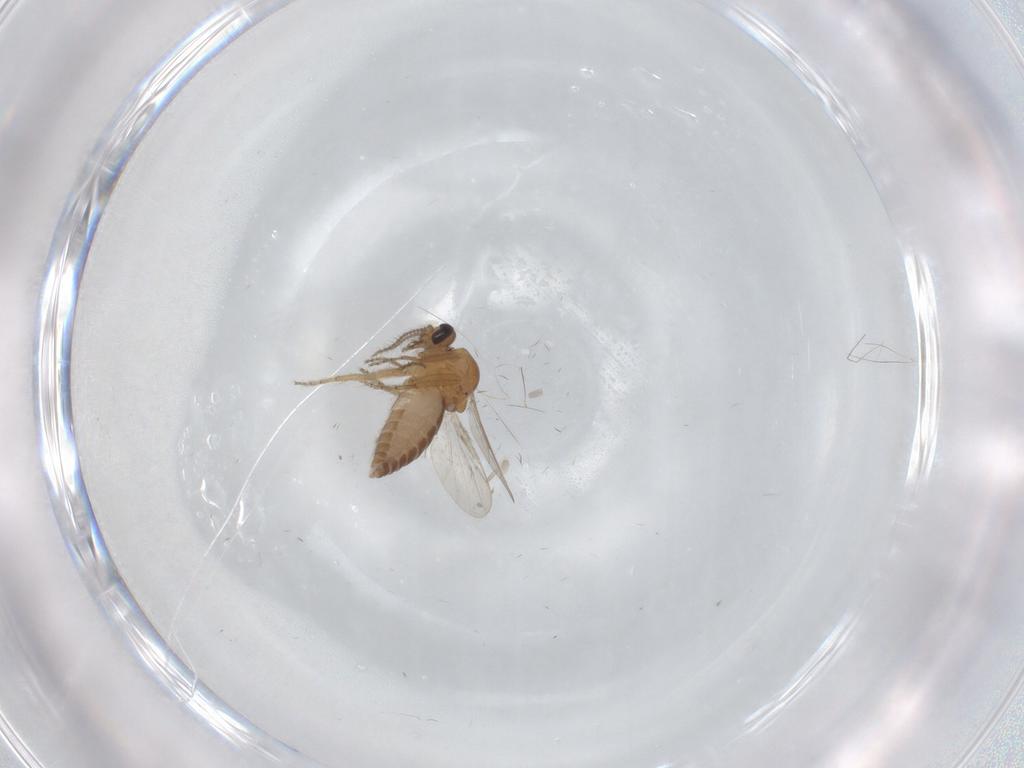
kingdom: Animalia
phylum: Arthropoda
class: Insecta
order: Diptera
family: Ceratopogonidae
